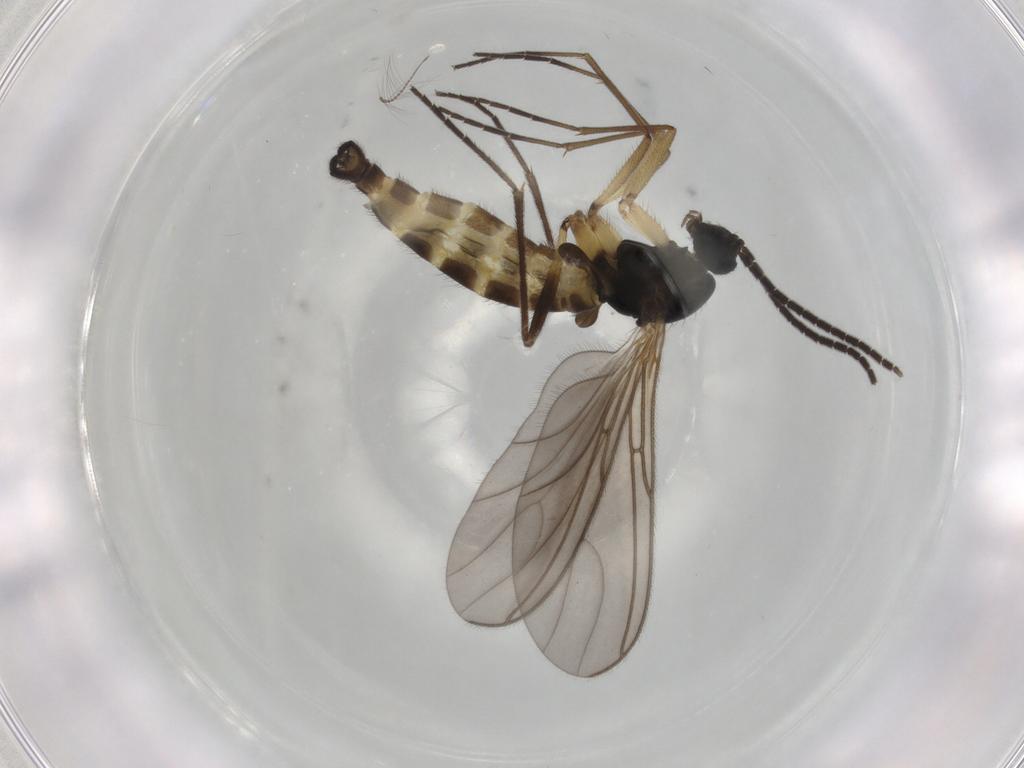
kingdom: Animalia
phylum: Arthropoda
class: Insecta
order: Diptera
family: Sciaridae
